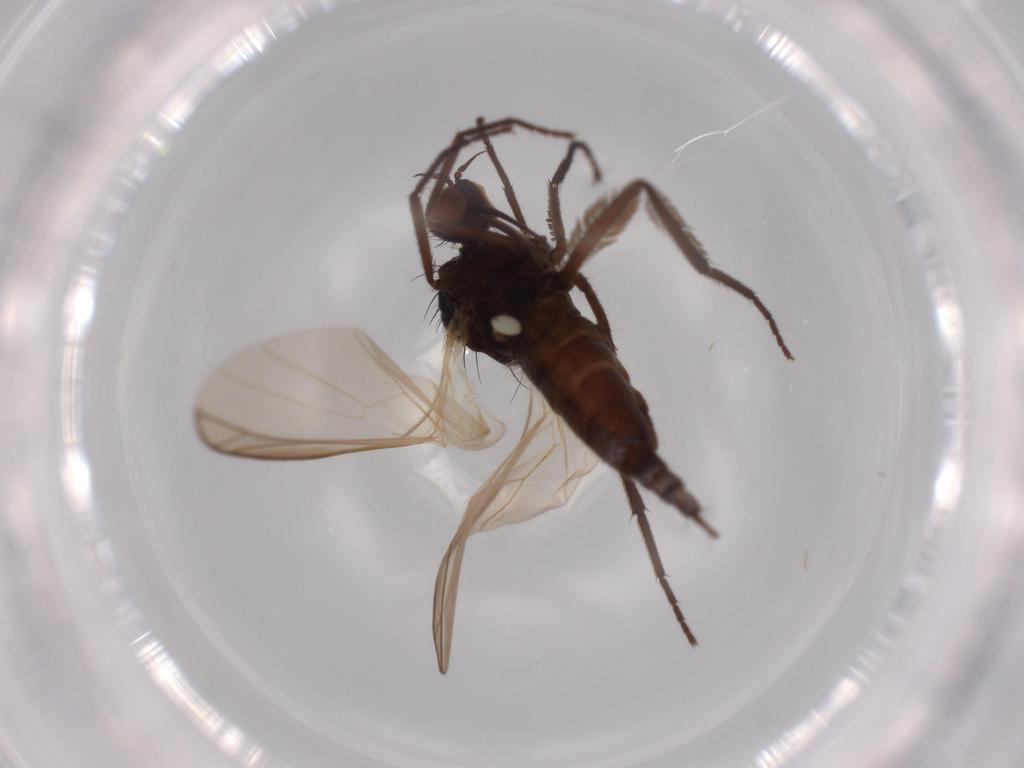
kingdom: Animalia
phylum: Arthropoda
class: Insecta
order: Diptera
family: Empididae
